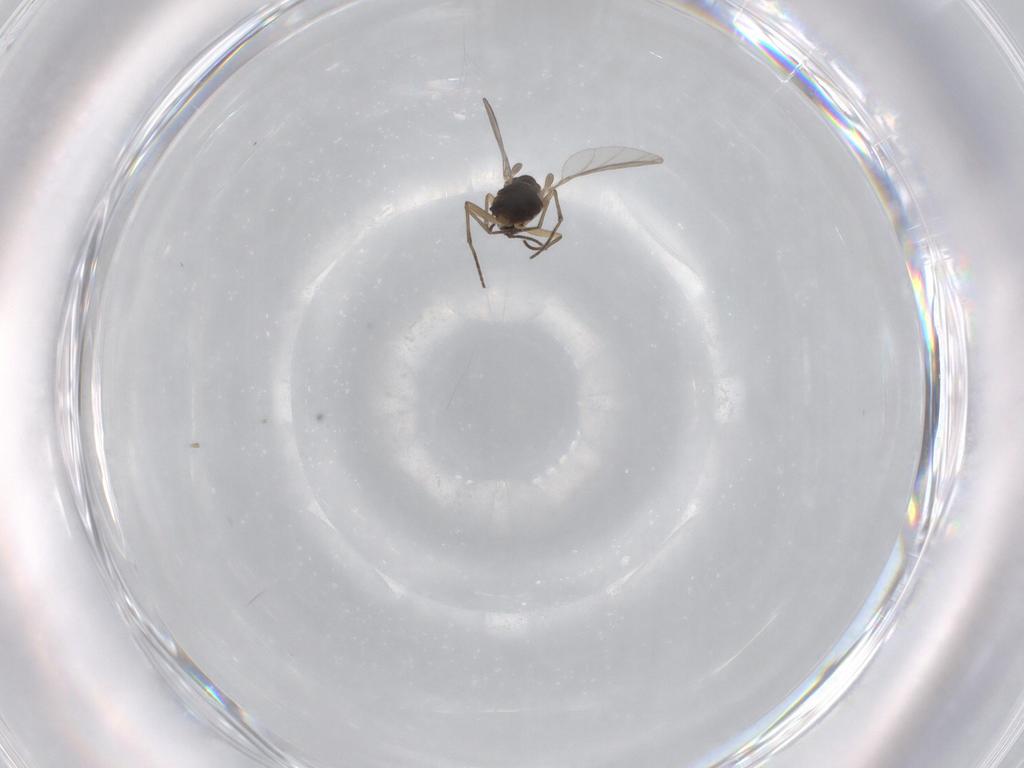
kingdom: Animalia
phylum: Arthropoda
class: Insecta
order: Diptera
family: Sciaridae
